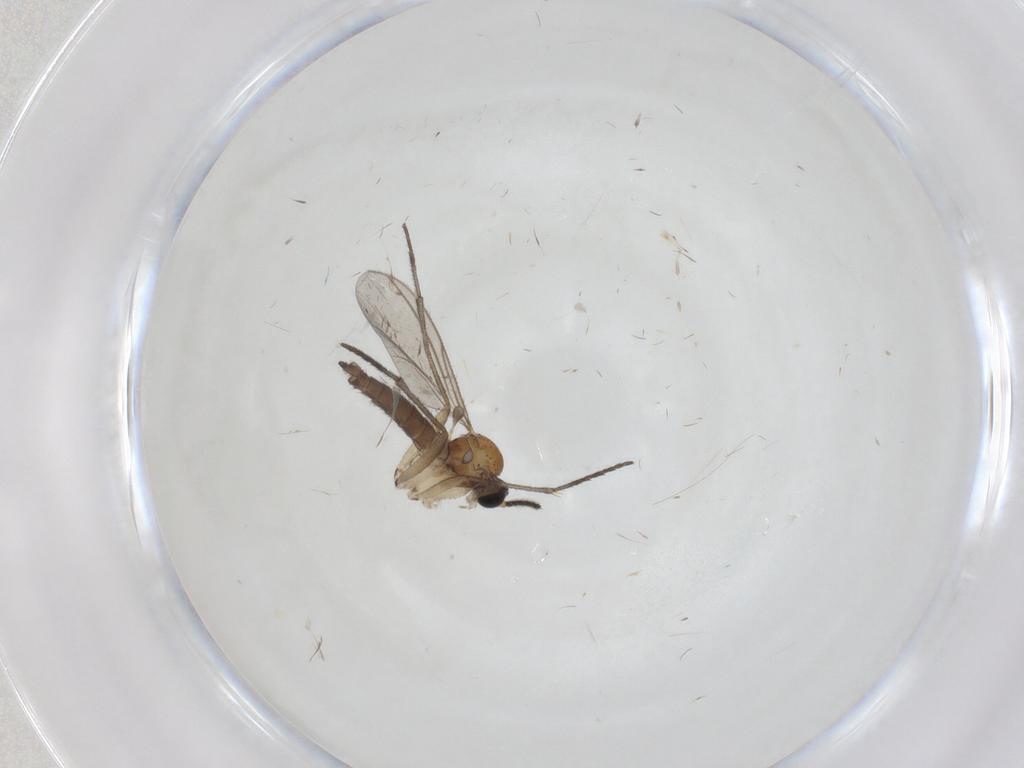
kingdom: Animalia
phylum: Arthropoda
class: Insecta
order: Diptera
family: Sciaridae
